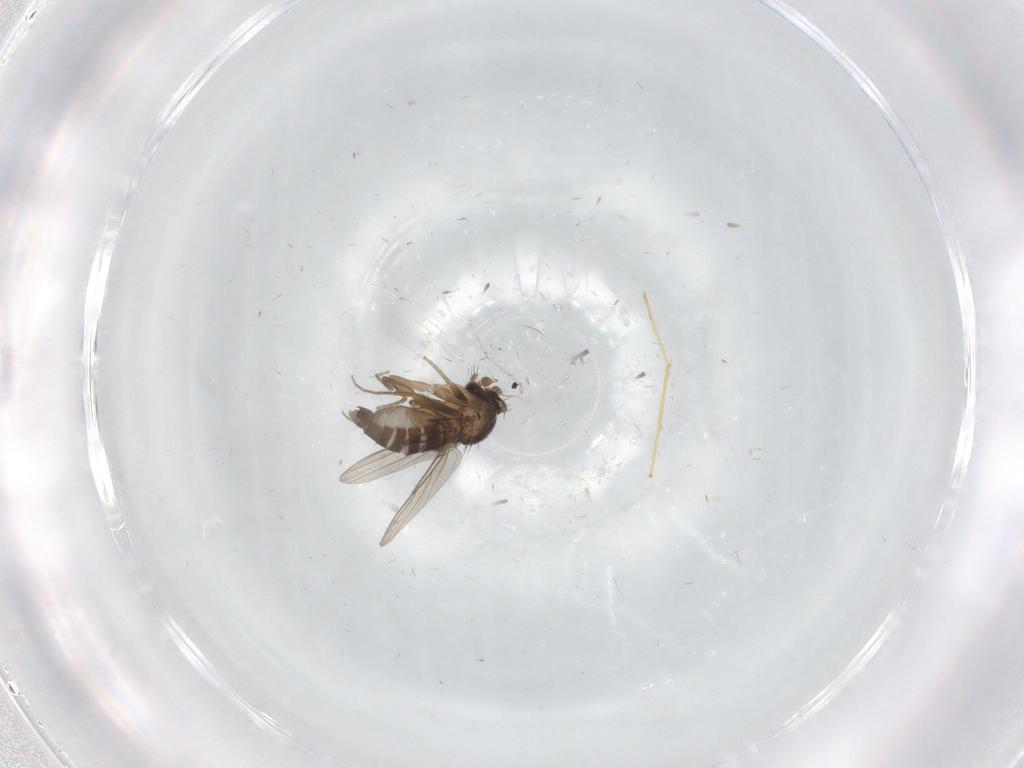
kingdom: Animalia
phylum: Arthropoda
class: Insecta
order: Diptera
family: Phoridae
